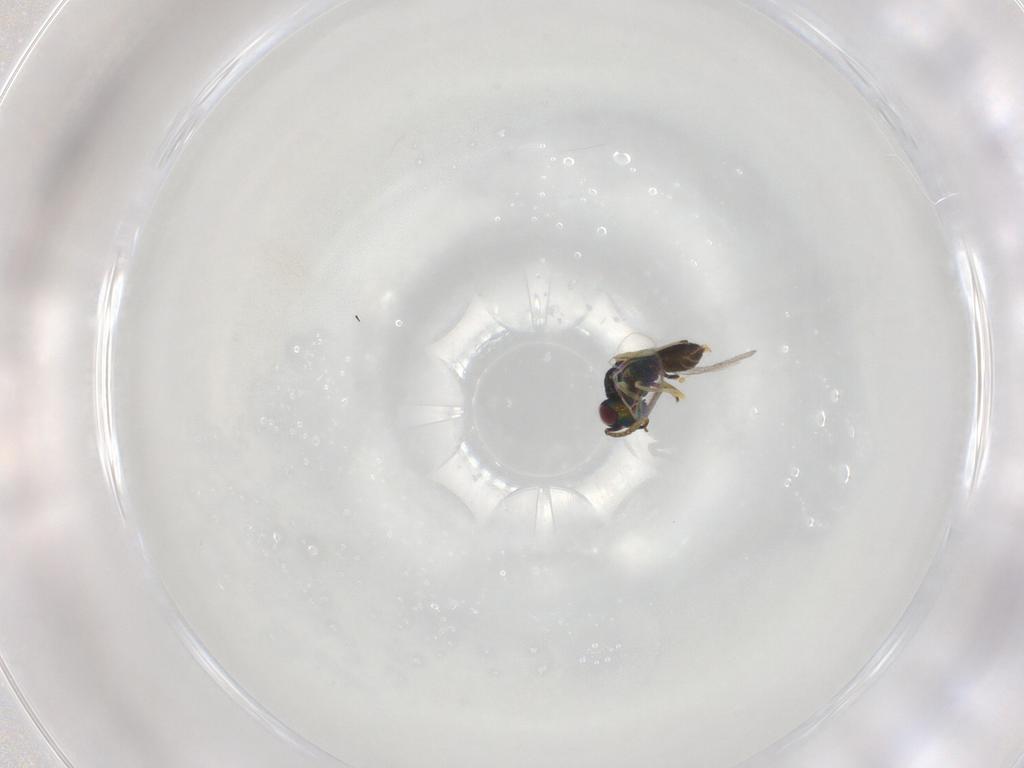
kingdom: Animalia
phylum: Arthropoda
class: Insecta
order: Hymenoptera
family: Pteromalidae
